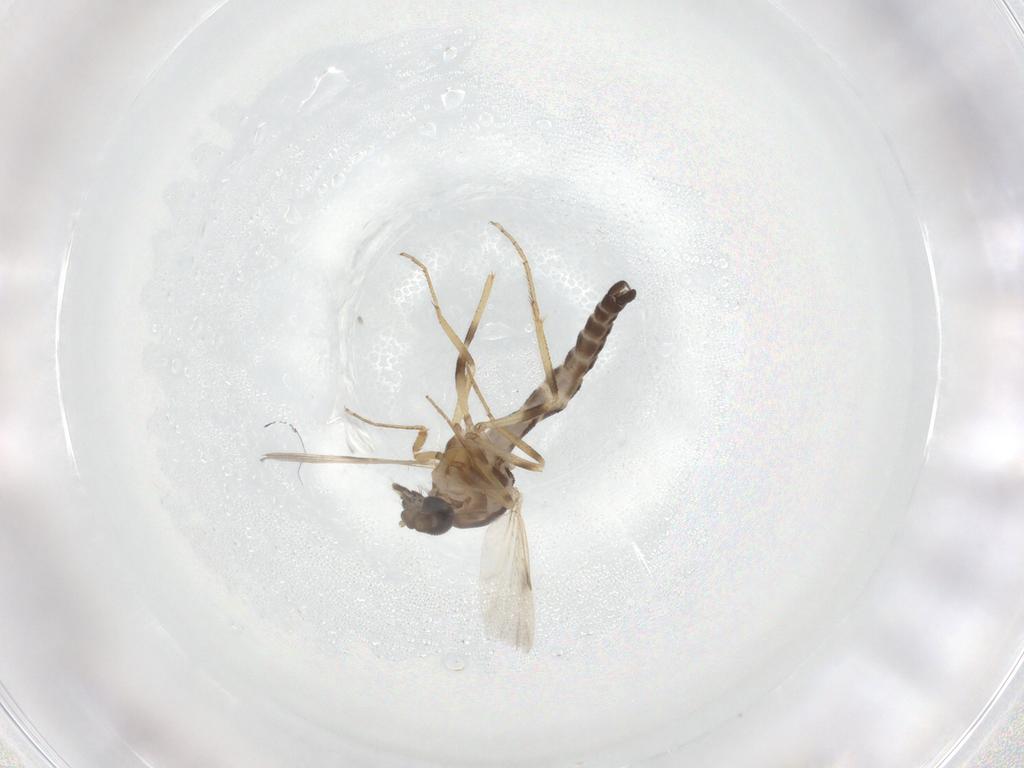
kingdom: Animalia
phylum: Arthropoda
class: Insecta
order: Diptera
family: Ceratopogonidae
